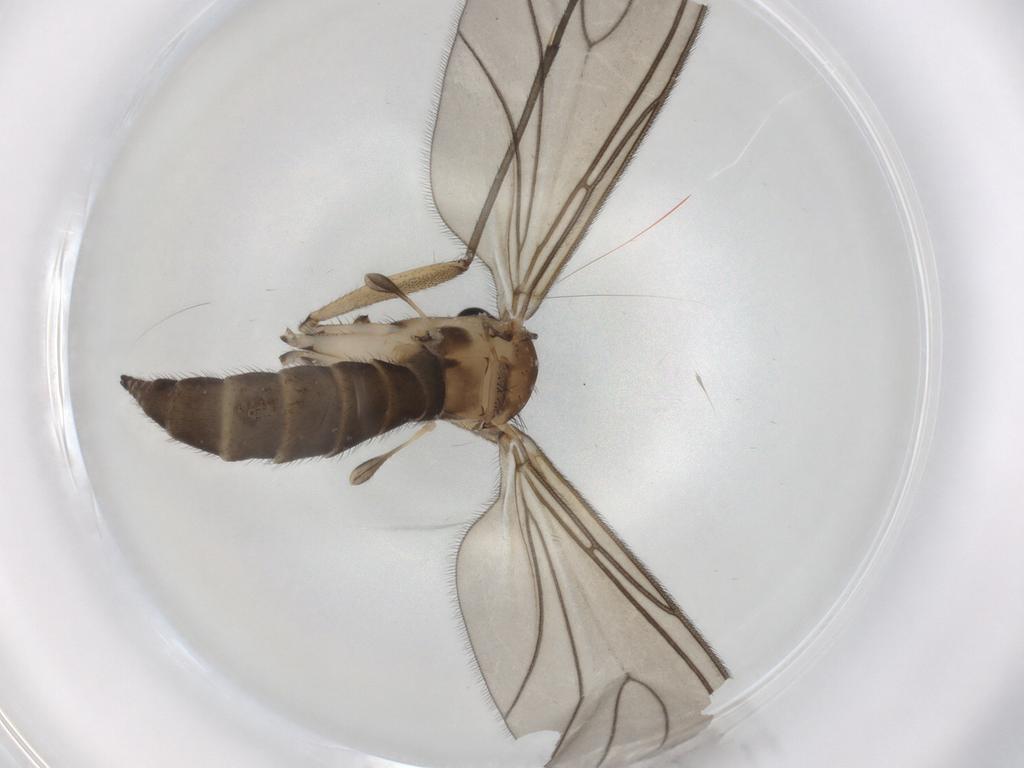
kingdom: Animalia
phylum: Arthropoda
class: Insecta
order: Diptera
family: Sciaridae
